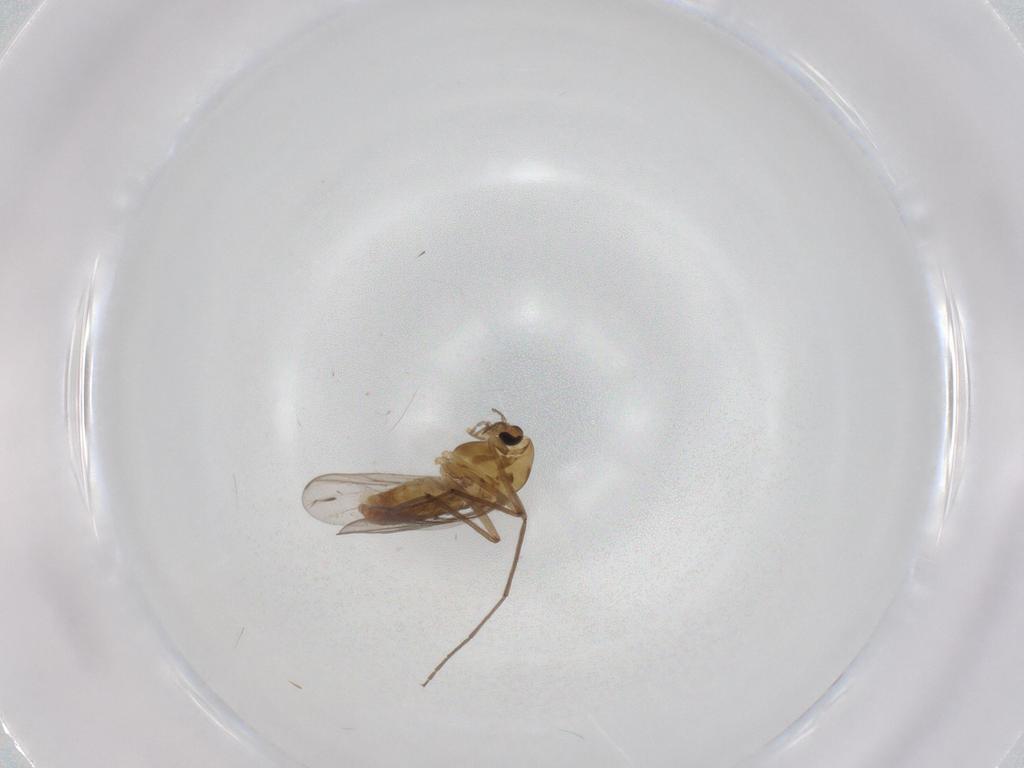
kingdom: Animalia
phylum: Arthropoda
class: Insecta
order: Diptera
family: Chironomidae
